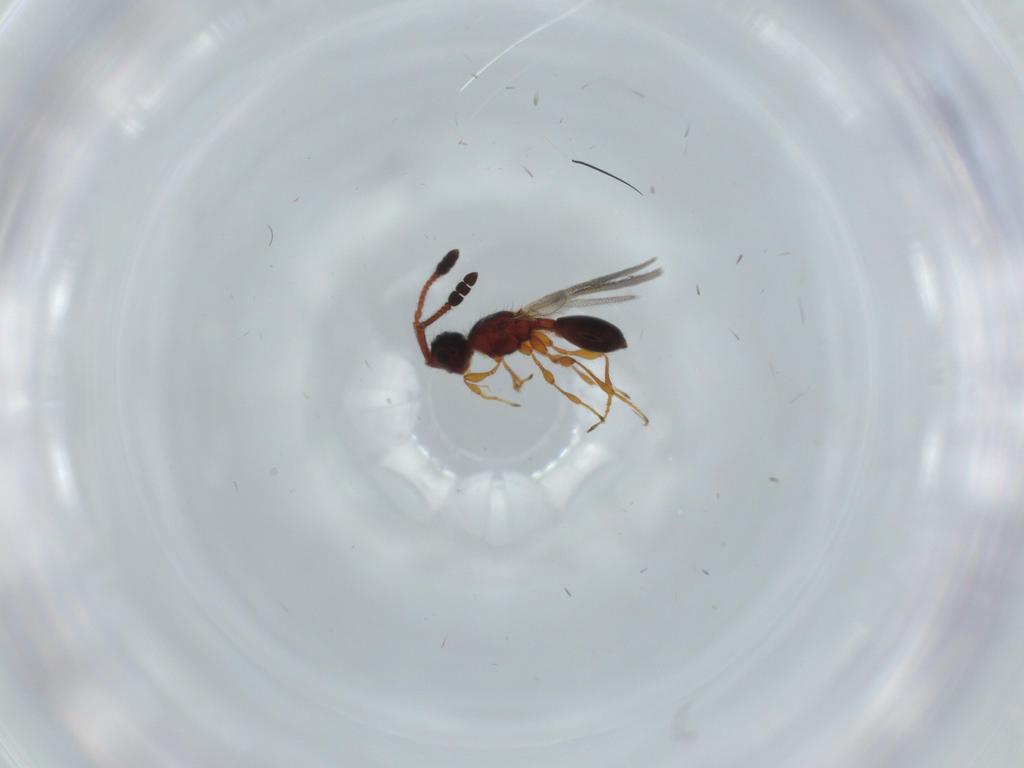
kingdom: Animalia
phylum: Arthropoda
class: Insecta
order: Hymenoptera
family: Diapriidae
